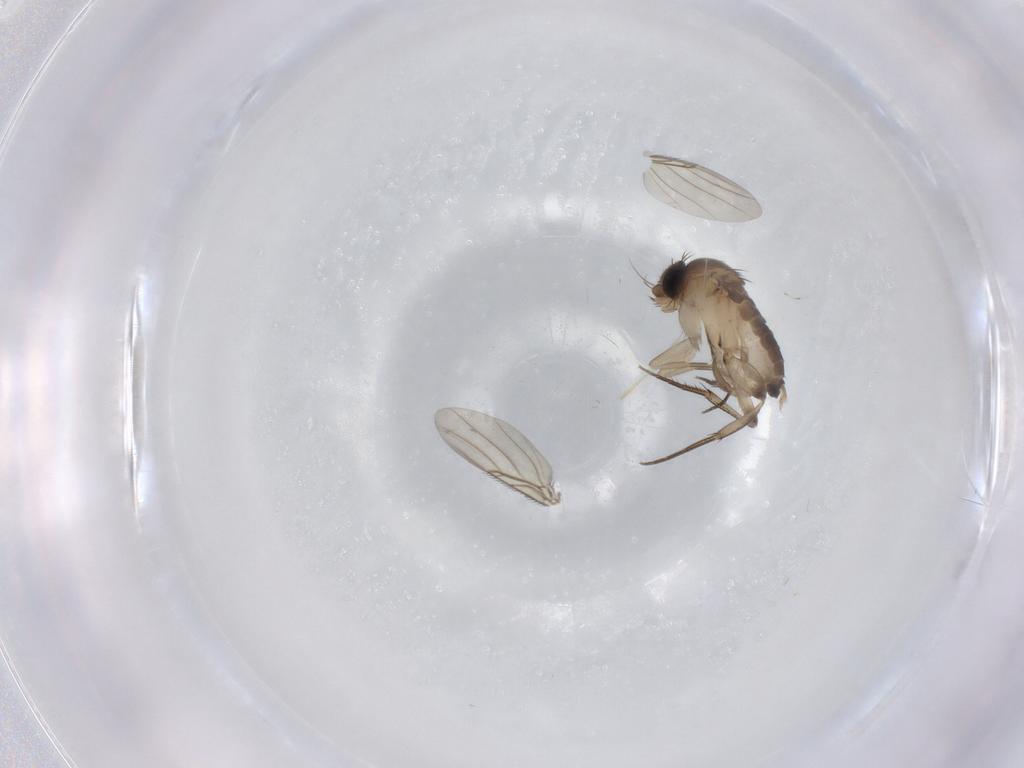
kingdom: Animalia
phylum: Arthropoda
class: Insecta
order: Diptera
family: Phoridae
